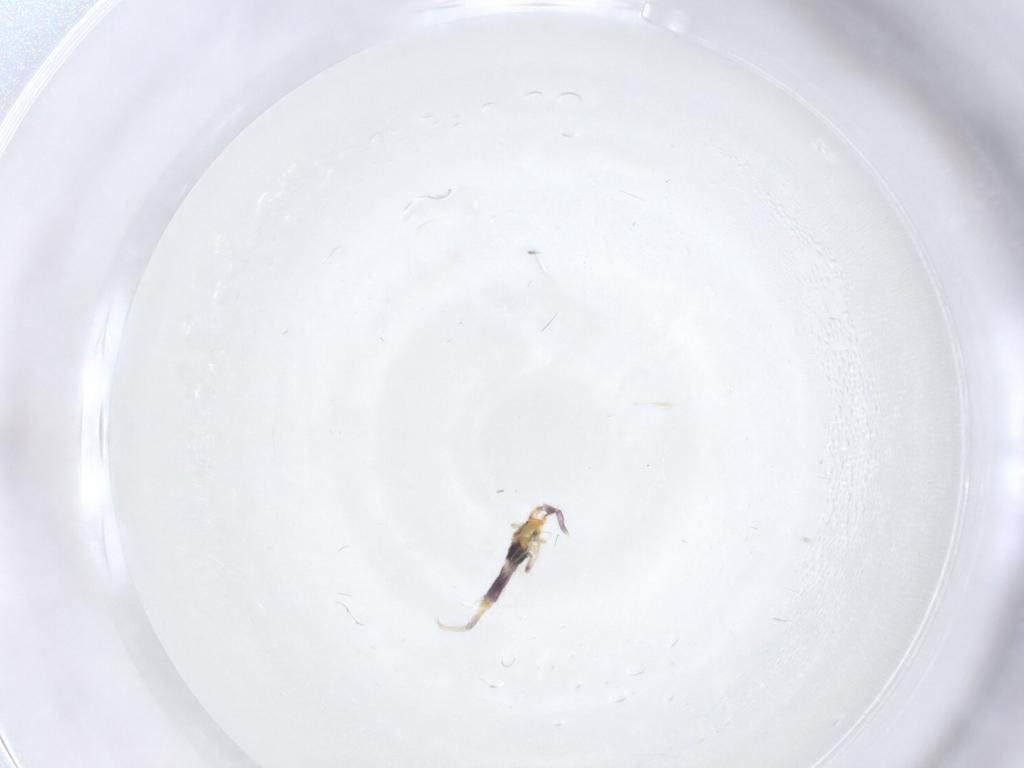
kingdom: Animalia
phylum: Arthropoda
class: Collembola
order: Entomobryomorpha
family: Entomobryidae
